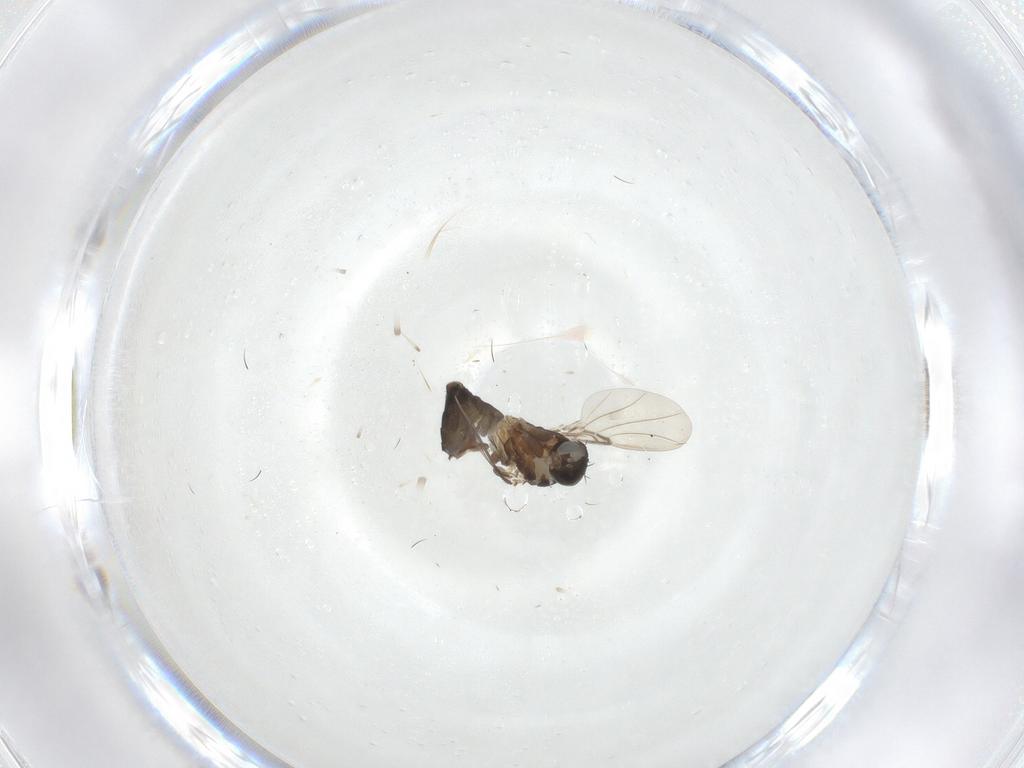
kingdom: Animalia
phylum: Arthropoda
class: Insecta
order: Diptera
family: Phoridae
